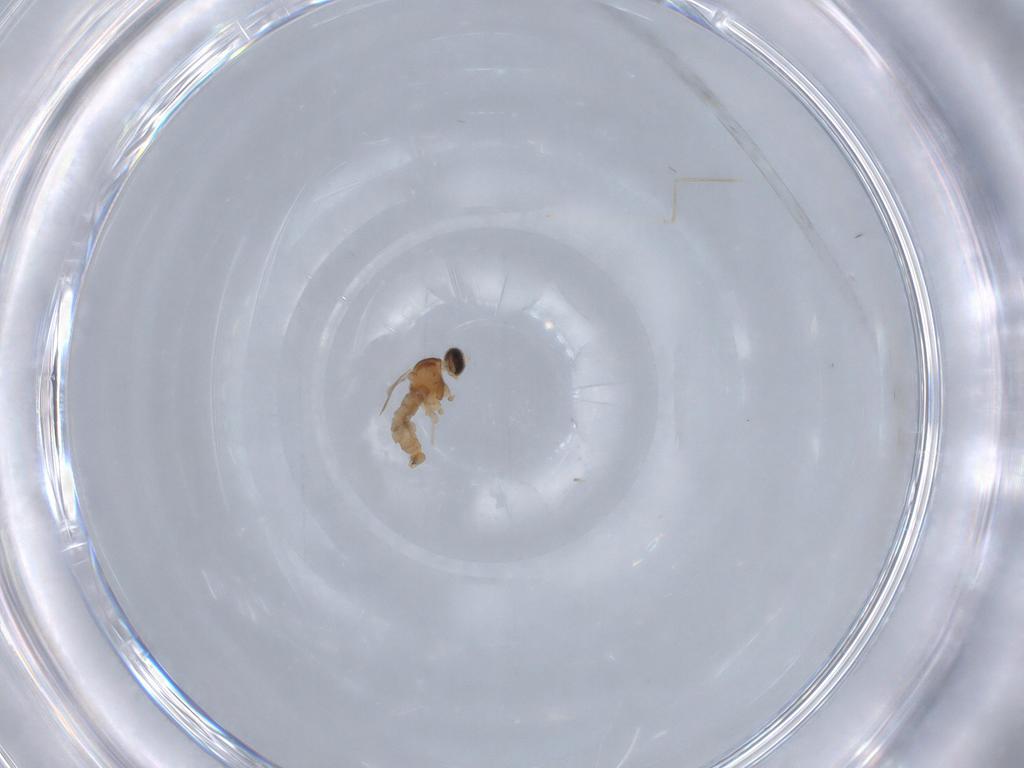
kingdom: Animalia
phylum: Arthropoda
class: Insecta
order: Diptera
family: Cecidomyiidae
